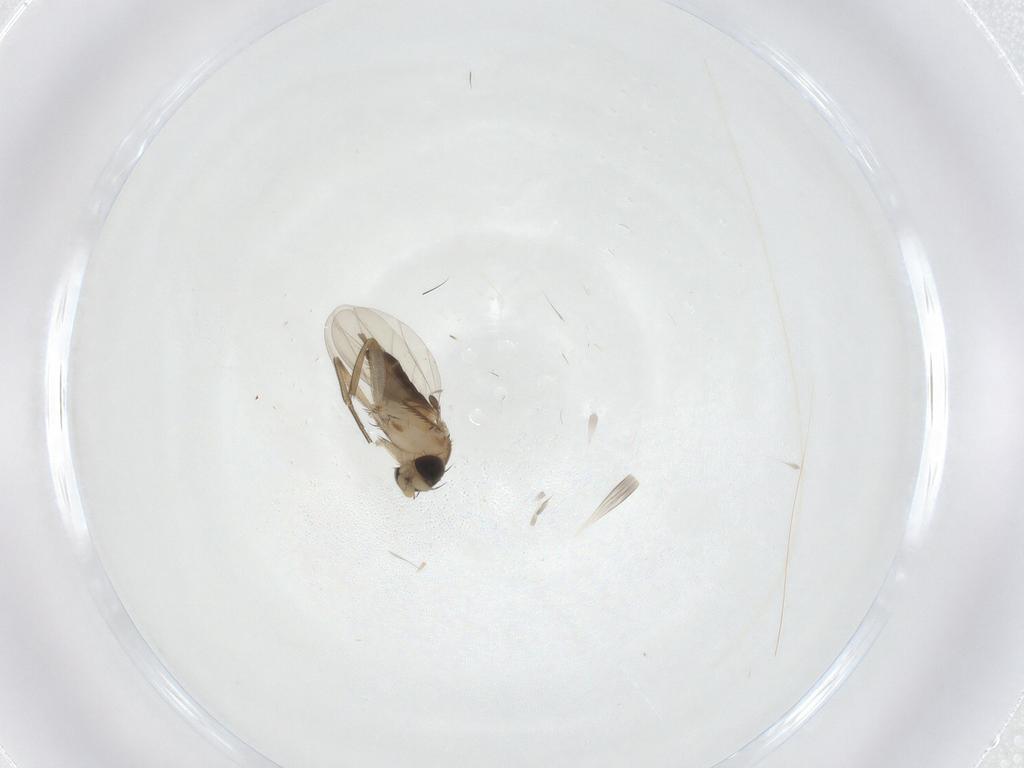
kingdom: Animalia
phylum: Arthropoda
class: Insecta
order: Diptera
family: Phoridae
